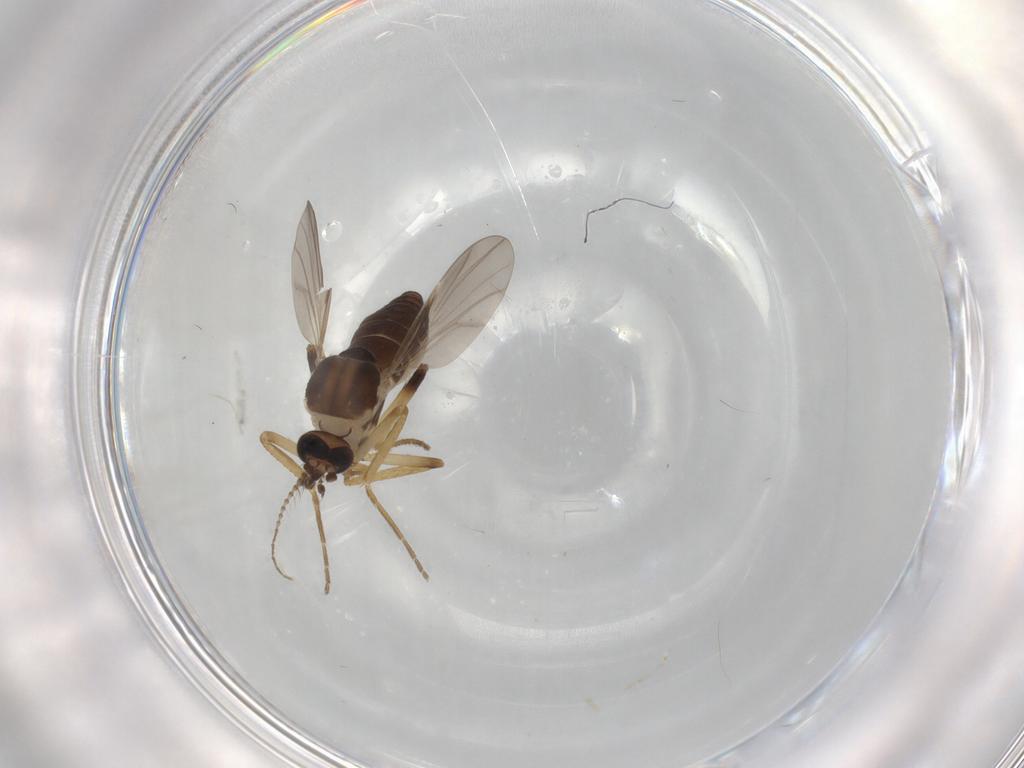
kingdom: Animalia
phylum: Arthropoda
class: Insecta
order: Diptera
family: Ceratopogonidae
